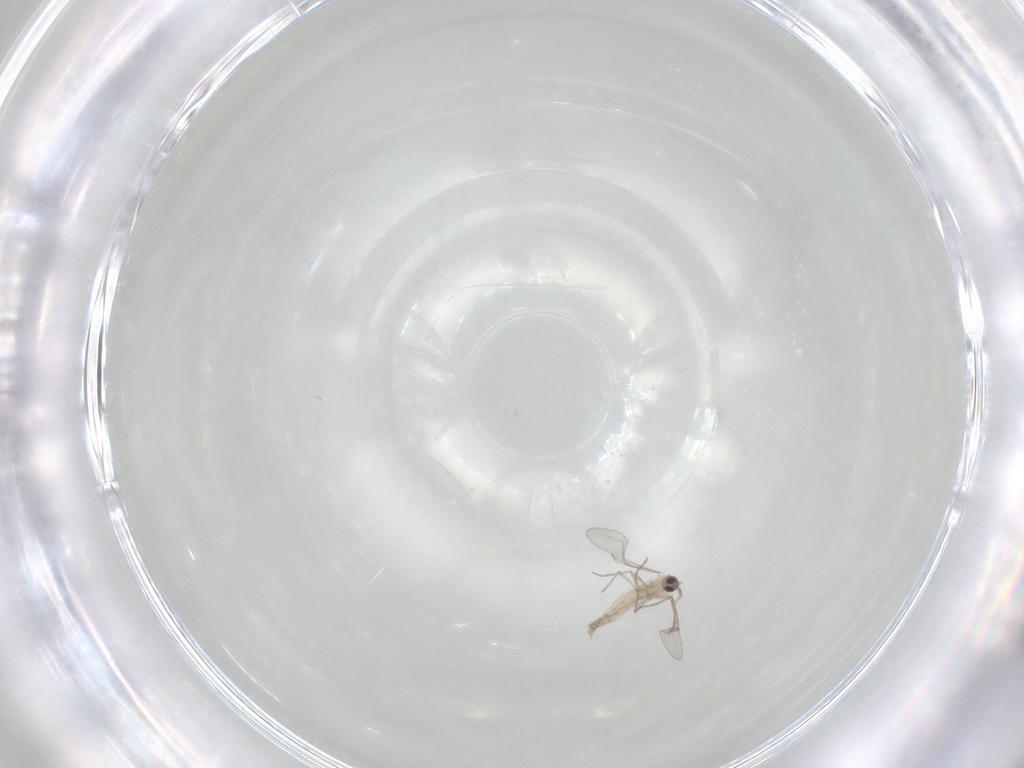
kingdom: Animalia
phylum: Arthropoda
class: Insecta
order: Diptera
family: Cecidomyiidae
